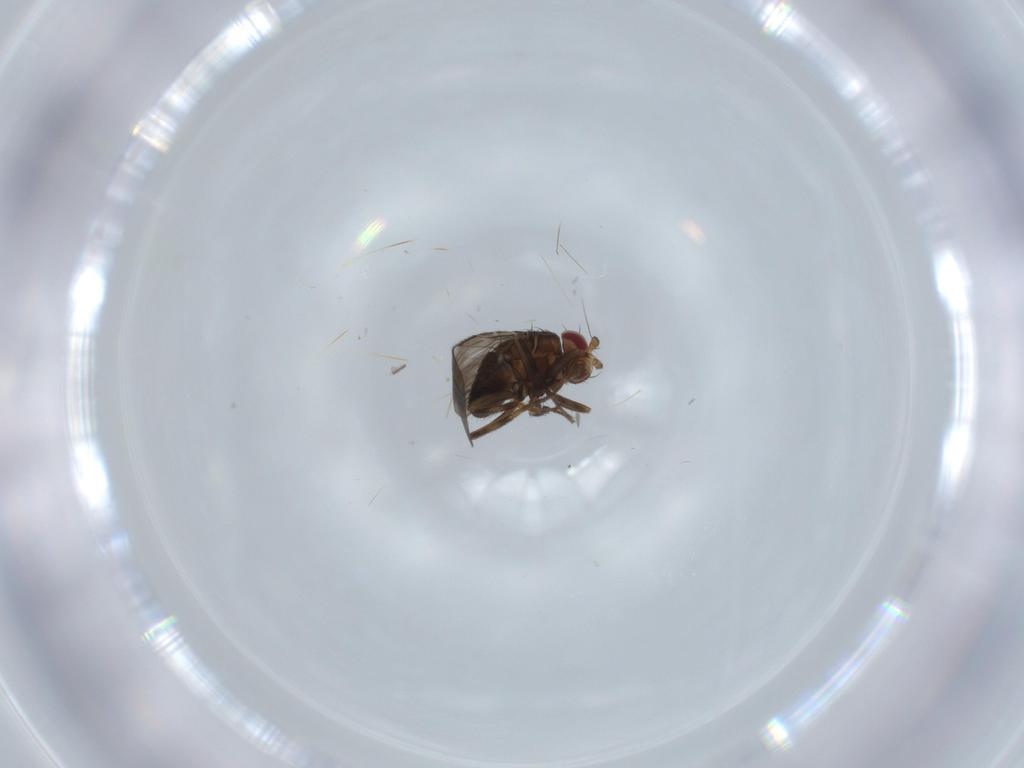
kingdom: Animalia
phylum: Arthropoda
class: Insecta
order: Diptera
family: Ceratopogonidae
